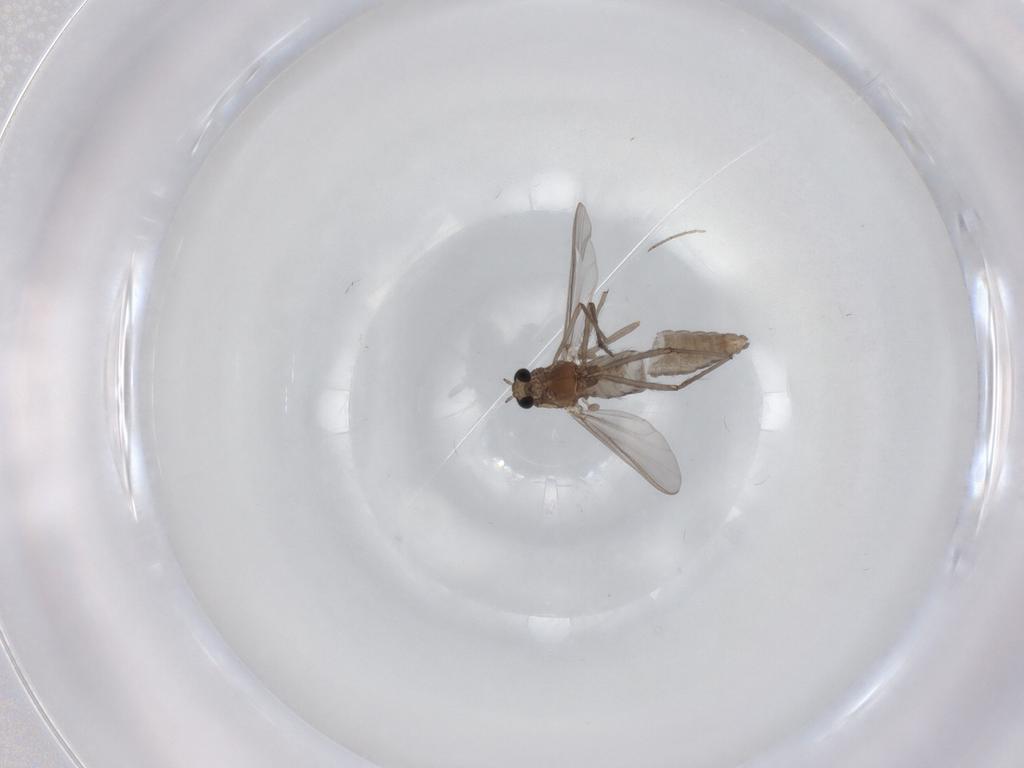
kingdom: Animalia
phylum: Arthropoda
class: Insecta
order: Diptera
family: Chironomidae
